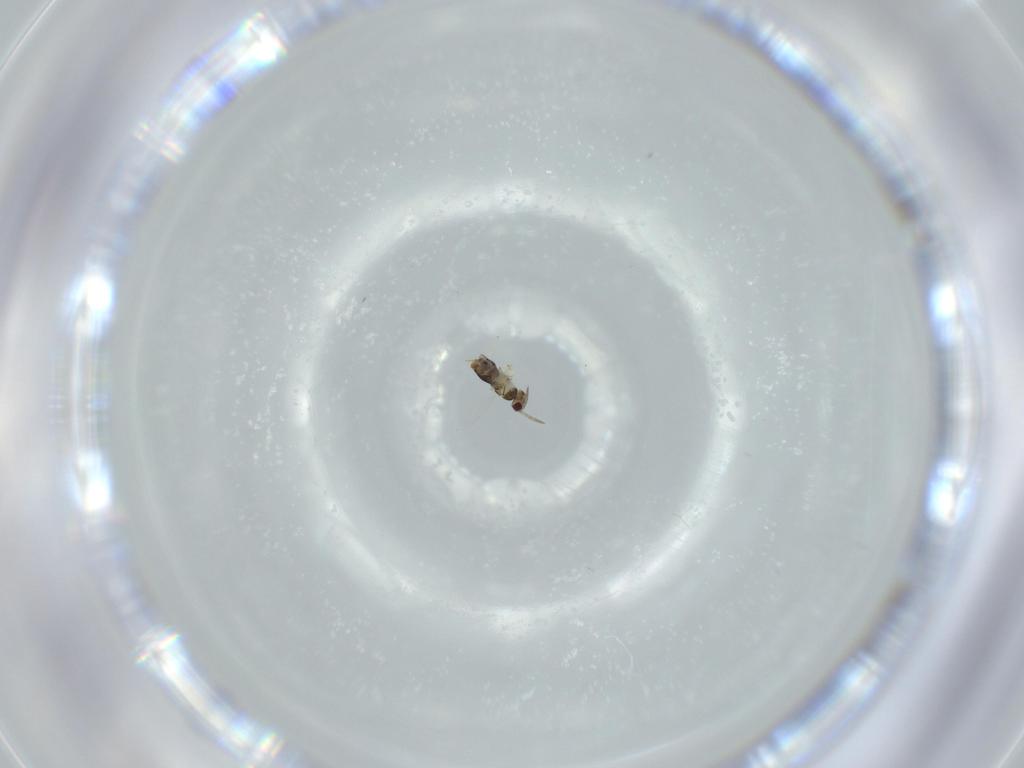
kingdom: Animalia
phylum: Arthropoda
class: Insecta
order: Hymenoptera
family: Aphelinidae
